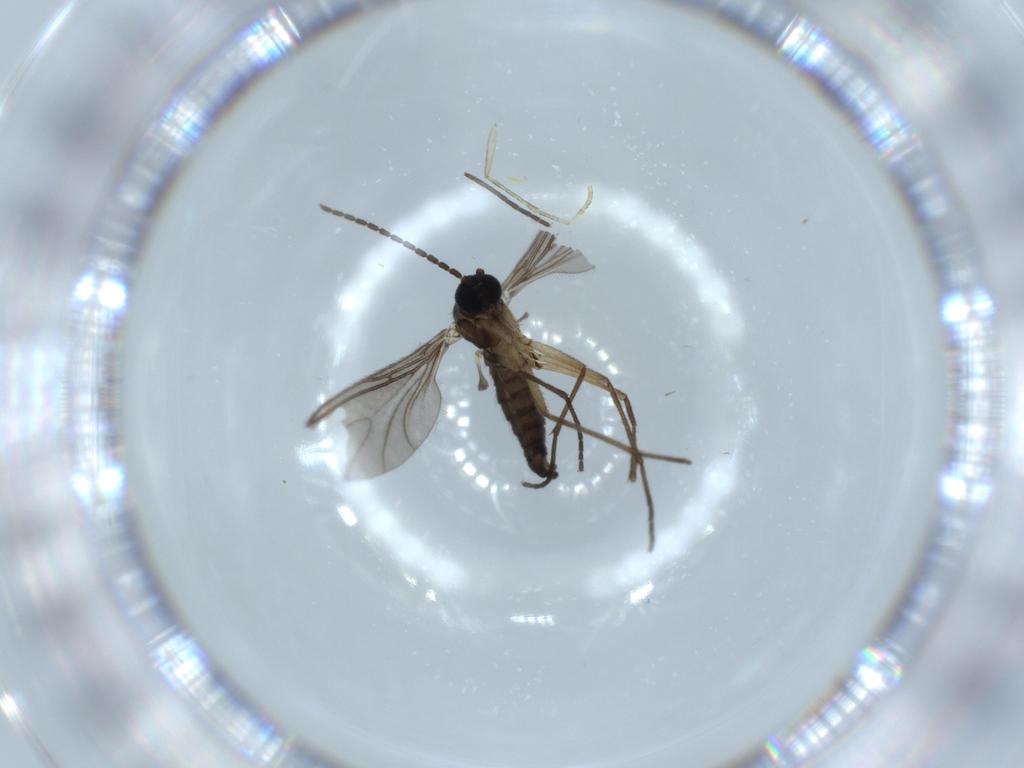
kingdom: Animalia
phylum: Arthropoda
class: Insecta
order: Diptera
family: Sciaridae
